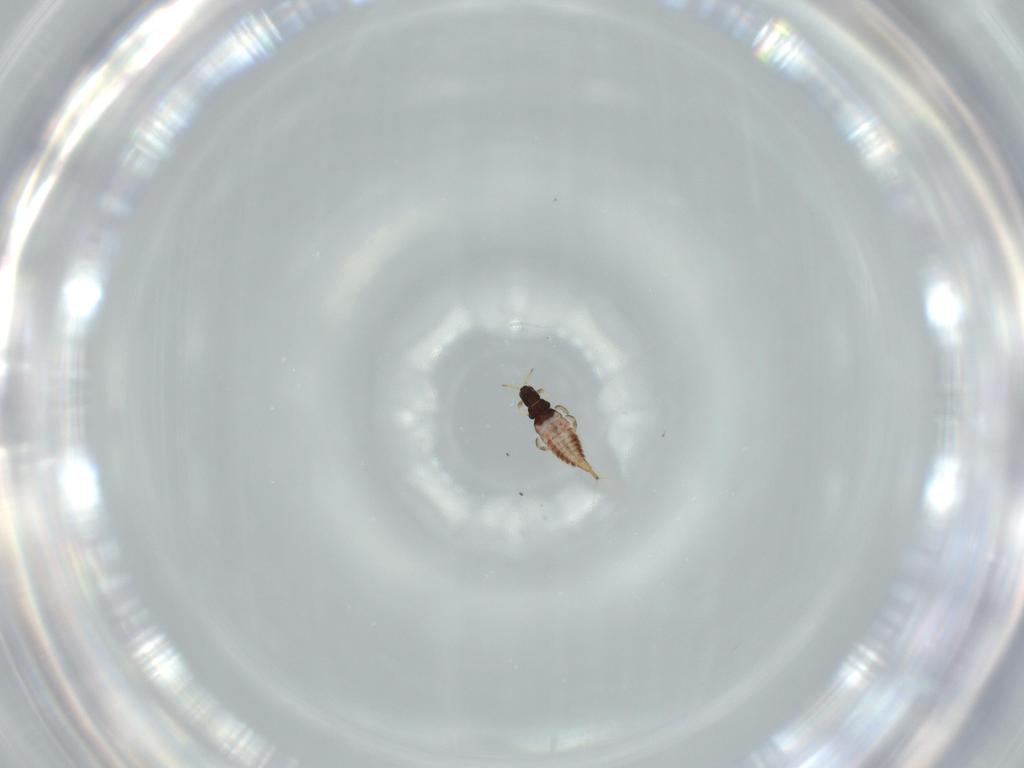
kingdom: Animalia
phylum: Arthropoda
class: Insecta
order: Thysanoptera
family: Phlaeothripidae
